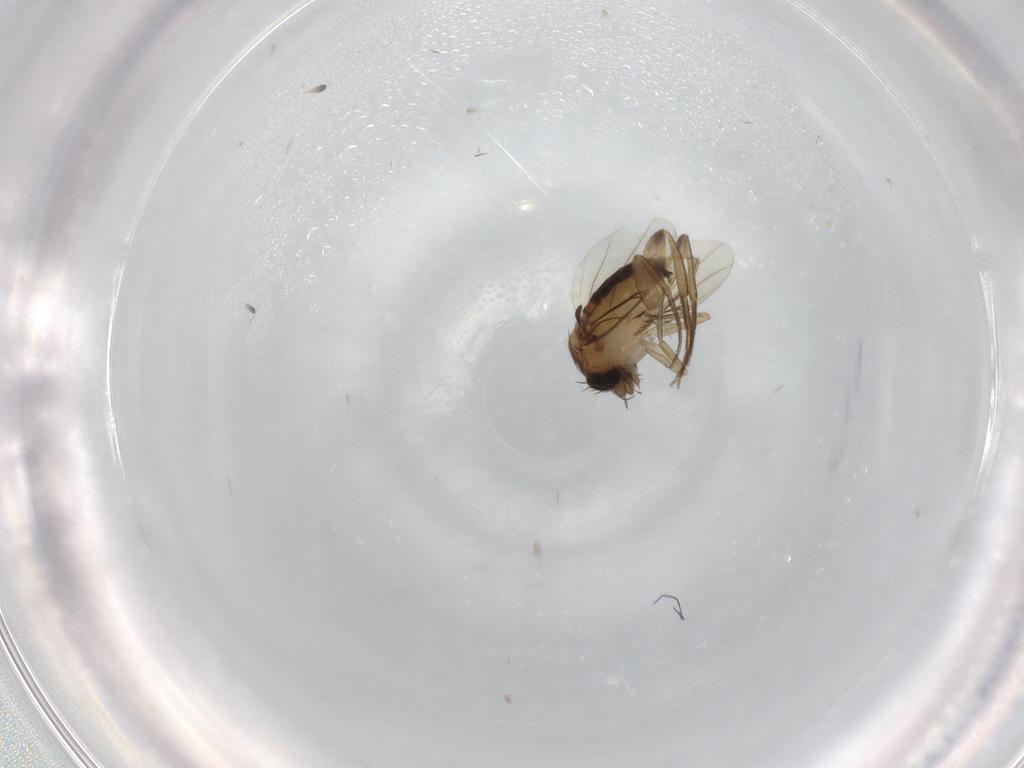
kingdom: Animalia
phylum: Arthropoda
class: Insecta
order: Diptera
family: Phoridae
